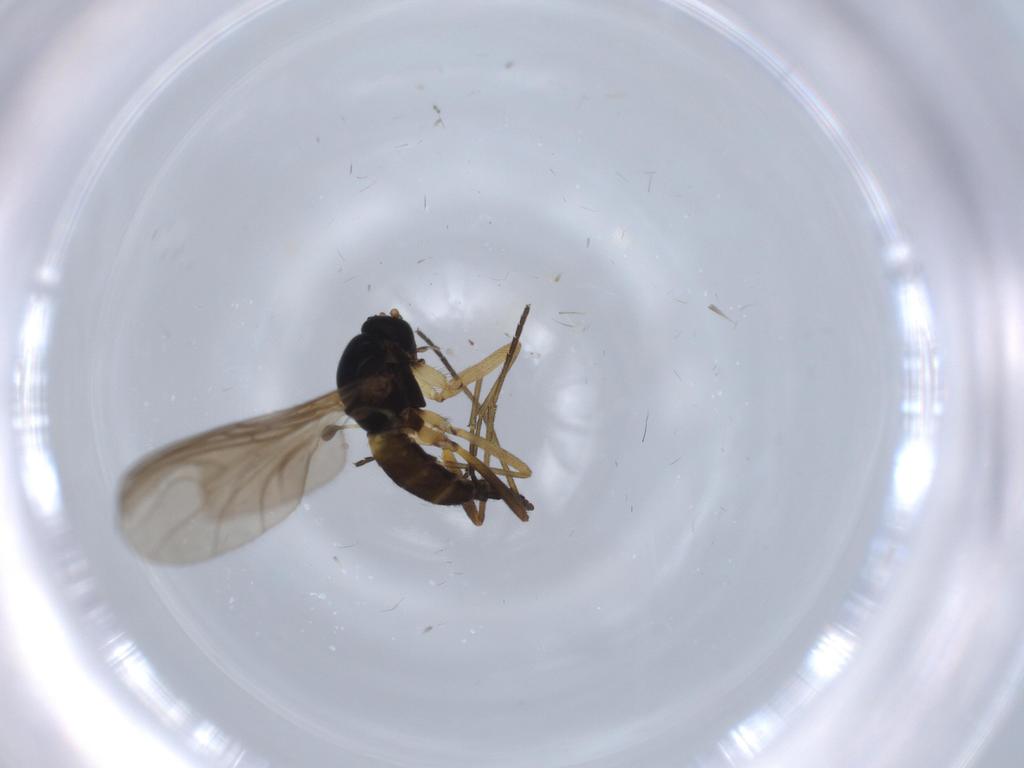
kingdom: Animalia
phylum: Arthropoda
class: Insecta
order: Diptera
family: Sciaridae
